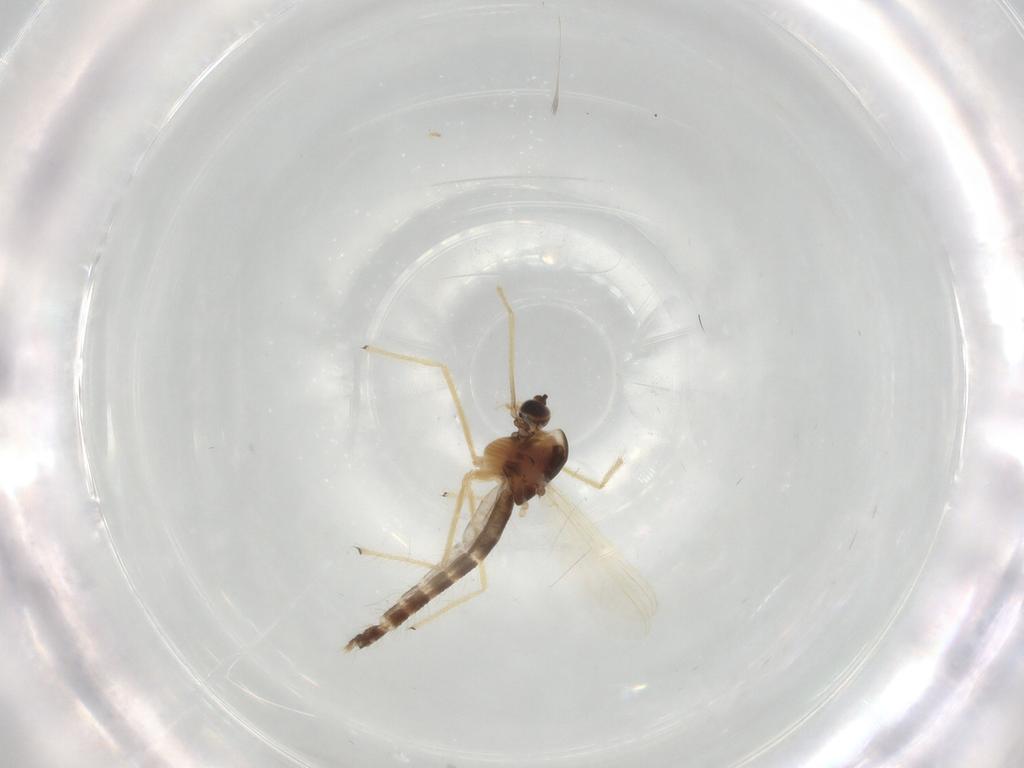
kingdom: Animalia
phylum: Arthropoda
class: Insecta
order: Diptera
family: Chironomidae
